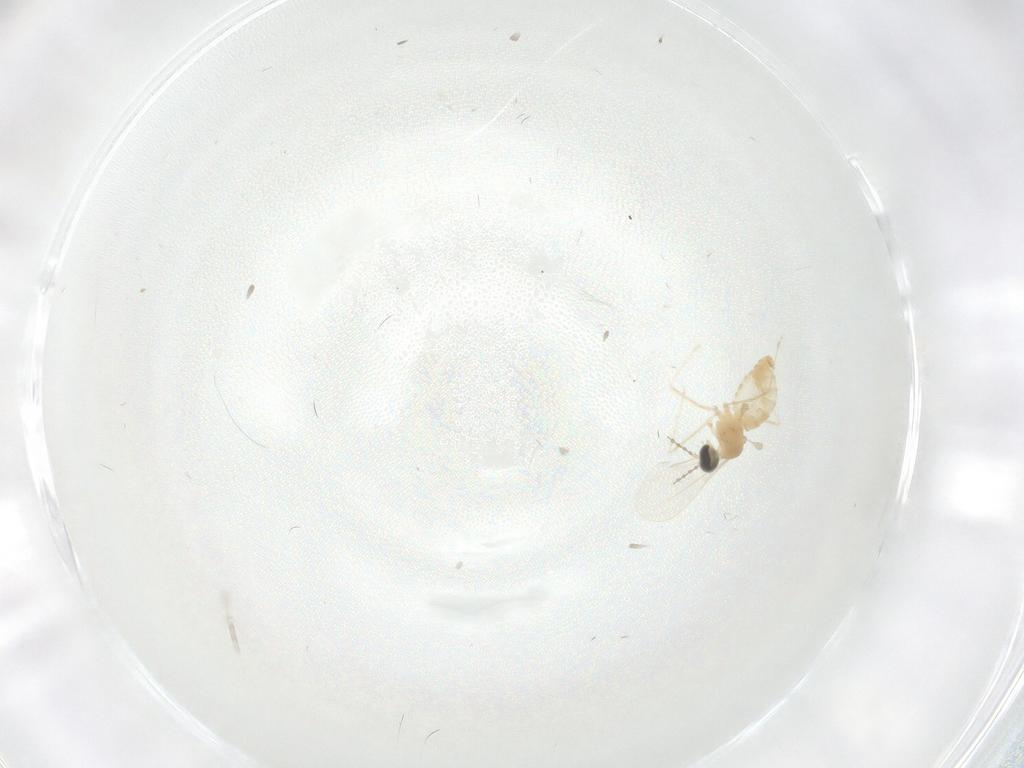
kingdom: Animalia
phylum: Arthropoda
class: Insecta
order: Diptera
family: Cecidomyiidae
